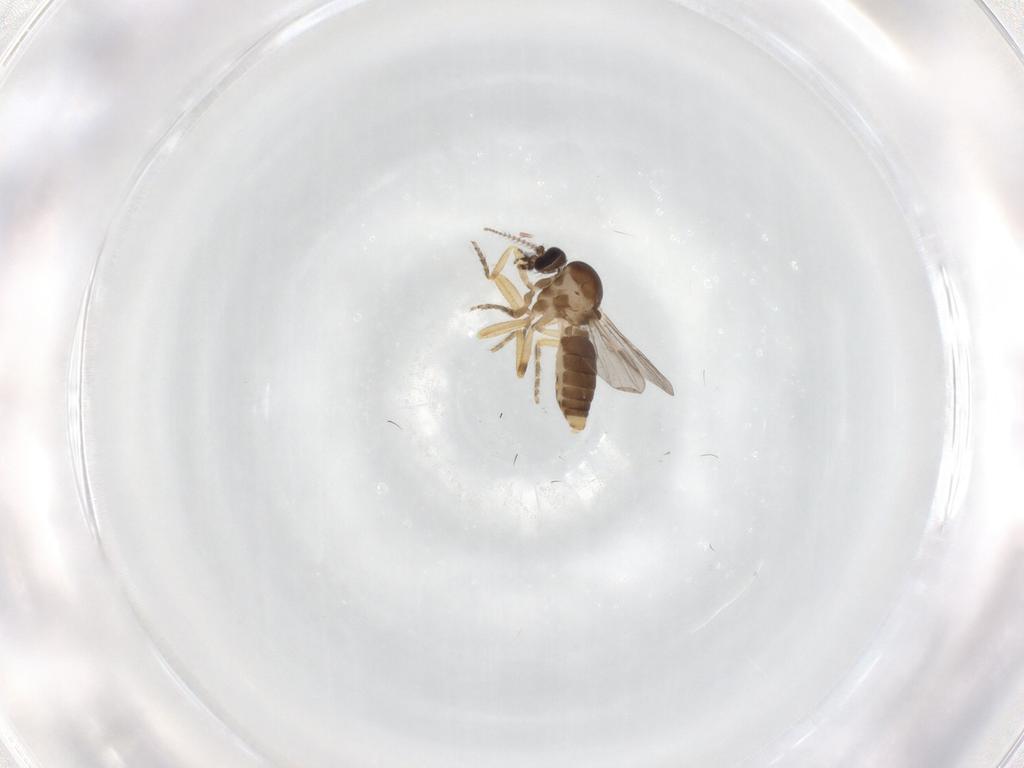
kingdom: Animalia
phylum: Arthropoda
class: Insecta
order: Diptera
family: Ceratopogonidae
